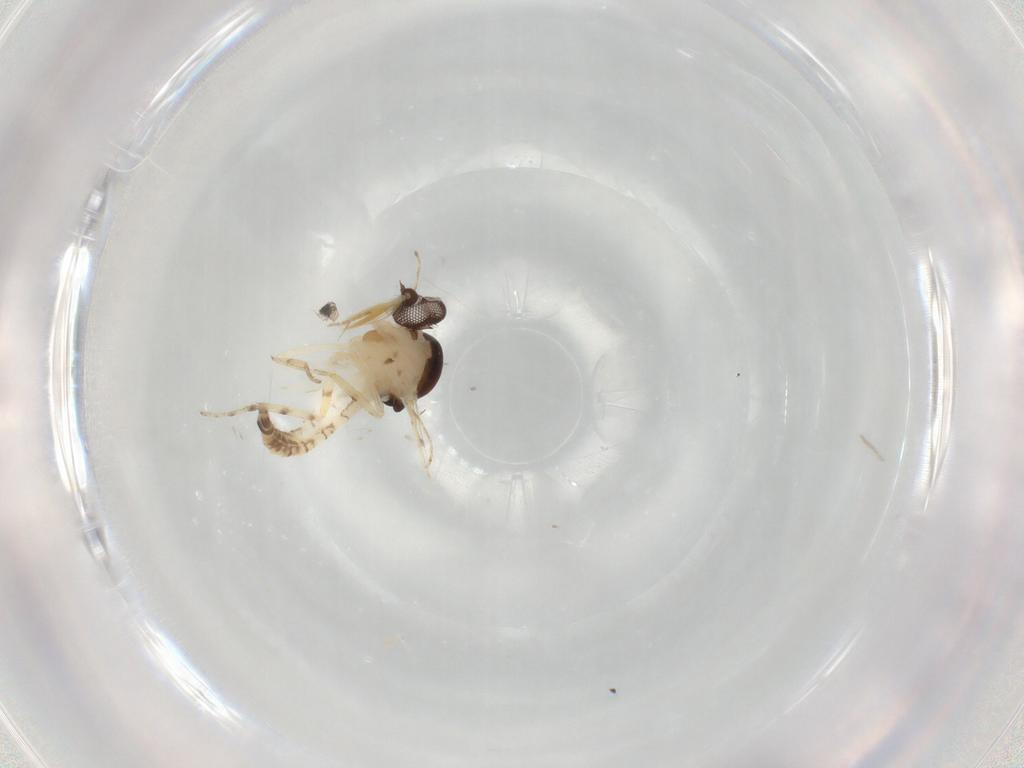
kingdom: Animalia
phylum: Arthropoda
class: Insecta
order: Diptera
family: Ceratopogonidae
